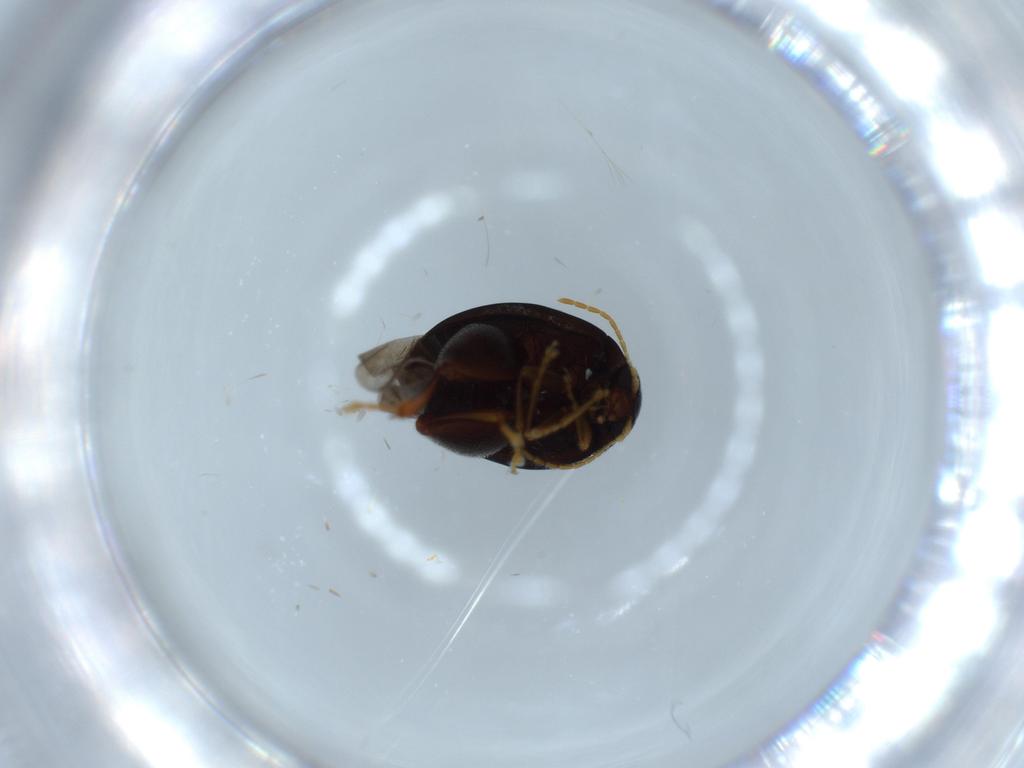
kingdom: Animalia
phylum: Arthropoda
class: Insecta
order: Coleoptera
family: Chrysomelidae
